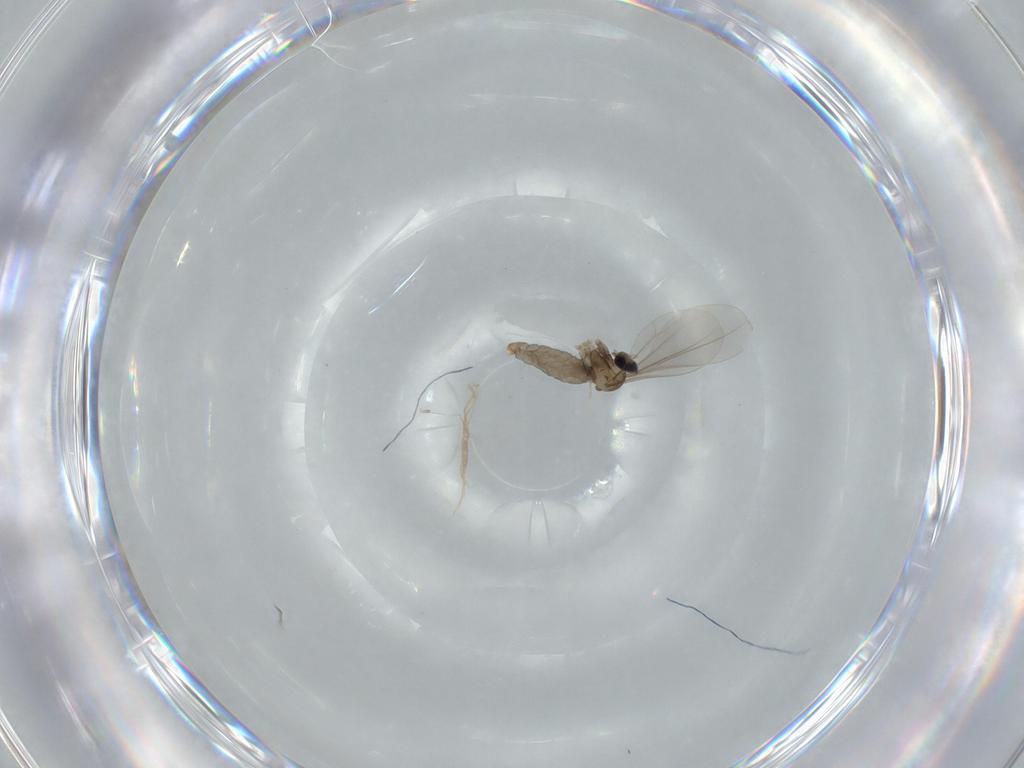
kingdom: Animalia
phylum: Arthropoda
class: Insecta
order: Diptera
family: Cecidomyiidae
